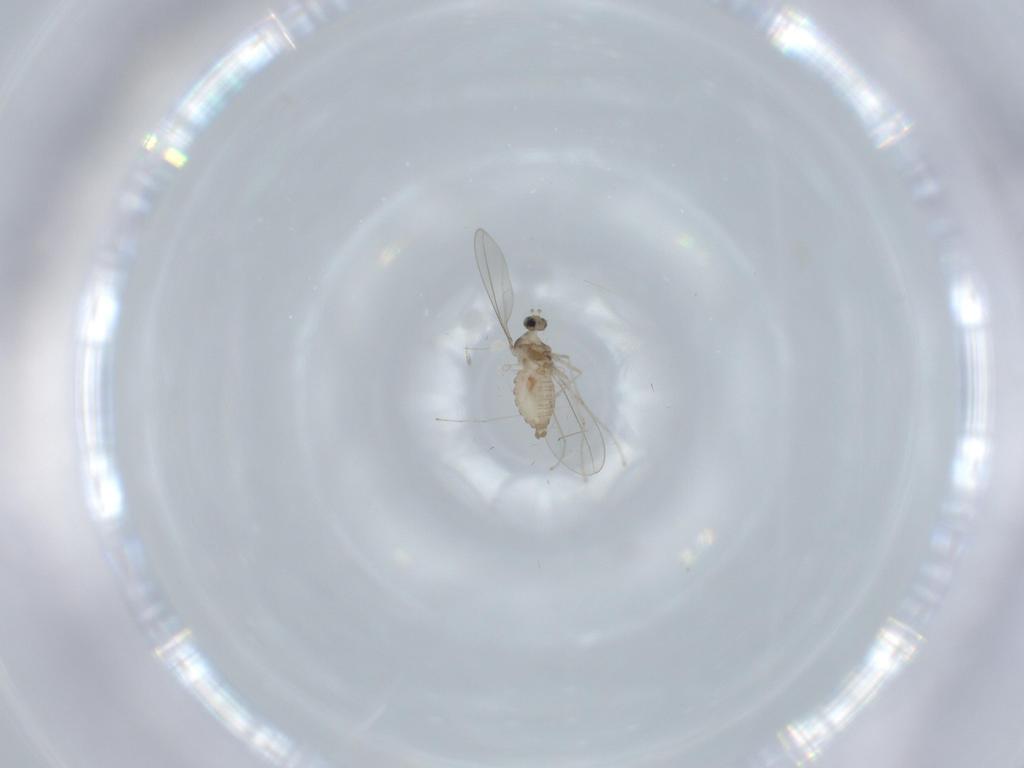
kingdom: Animalia
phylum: Arthropoda
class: Insecta
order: Diptera
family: Cecidomyiidae
